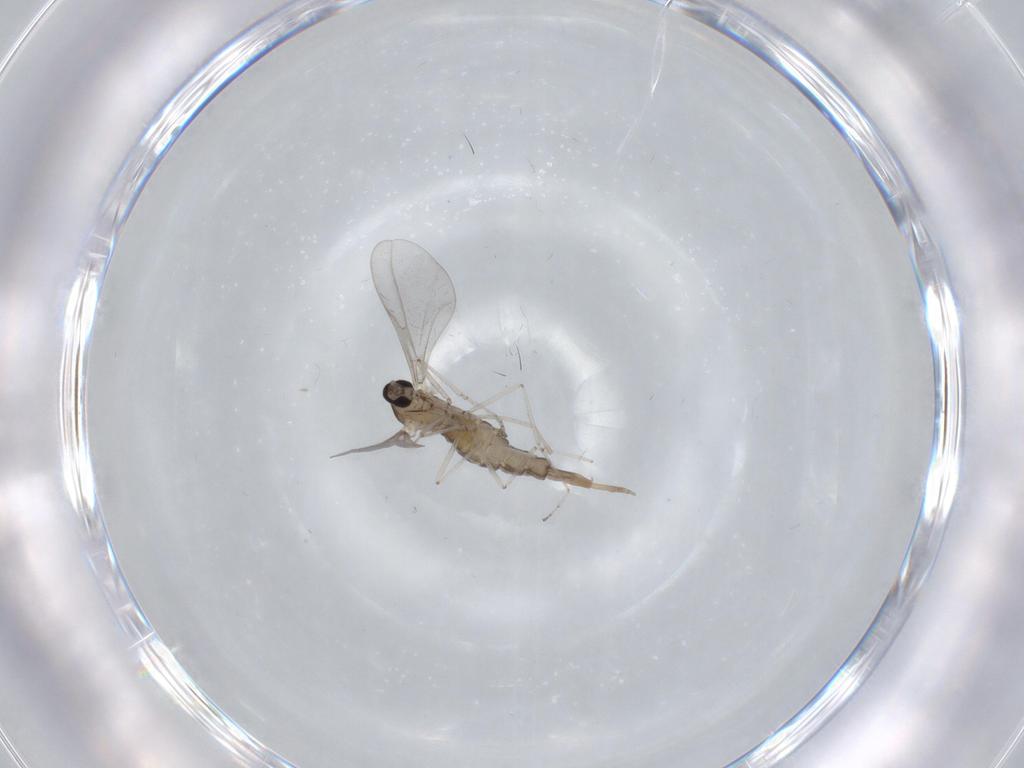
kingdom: Animalia
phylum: Arthropoda
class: Insecta
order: Diptera
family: Cecidomyiidae
